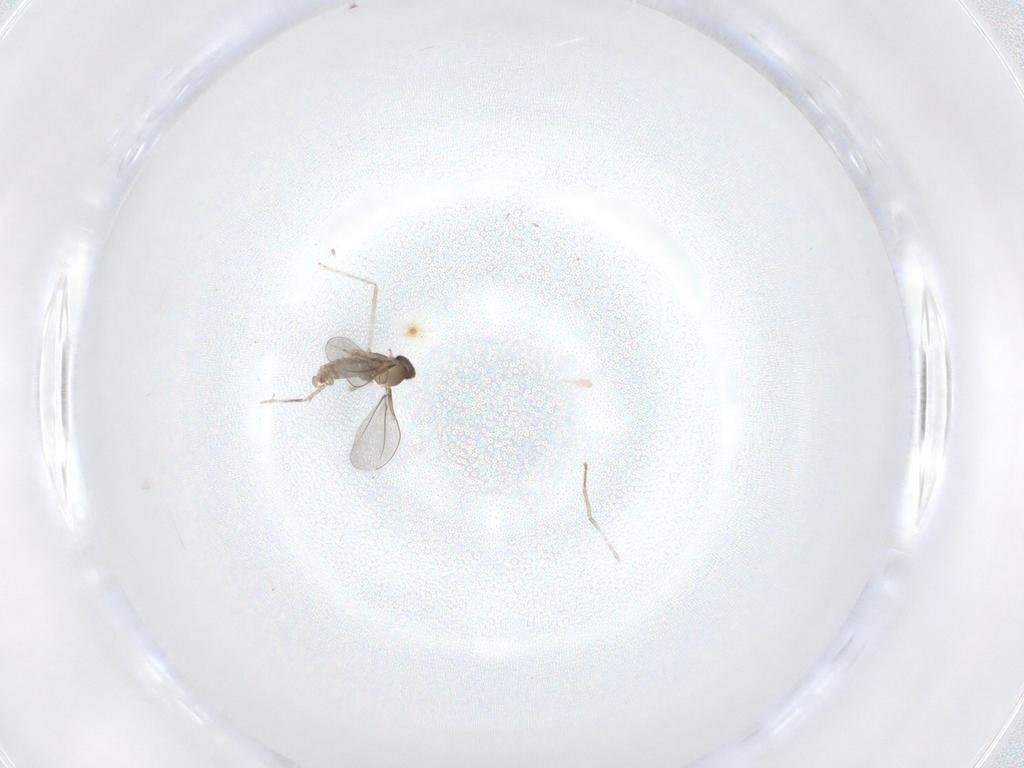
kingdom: Animalia
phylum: Arthropoda
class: Insecta
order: Diptera
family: Cecidomyiidae
